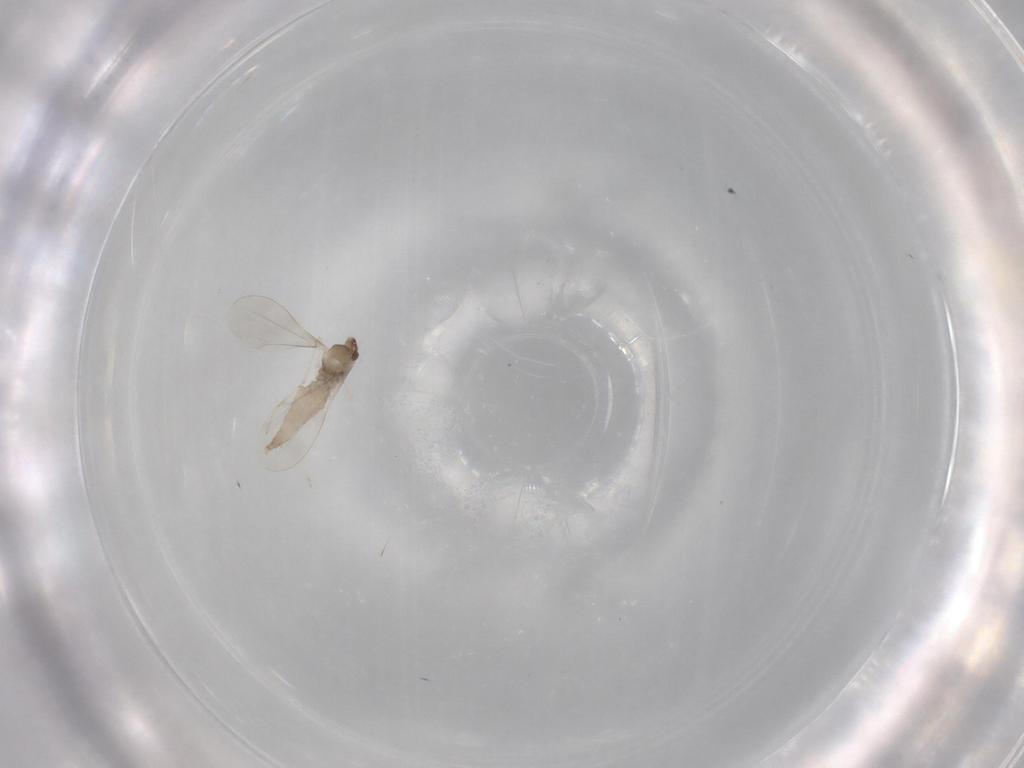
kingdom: Animalia
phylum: Arthropoda
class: Insecta
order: Diptera
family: Cecidomyiidae
